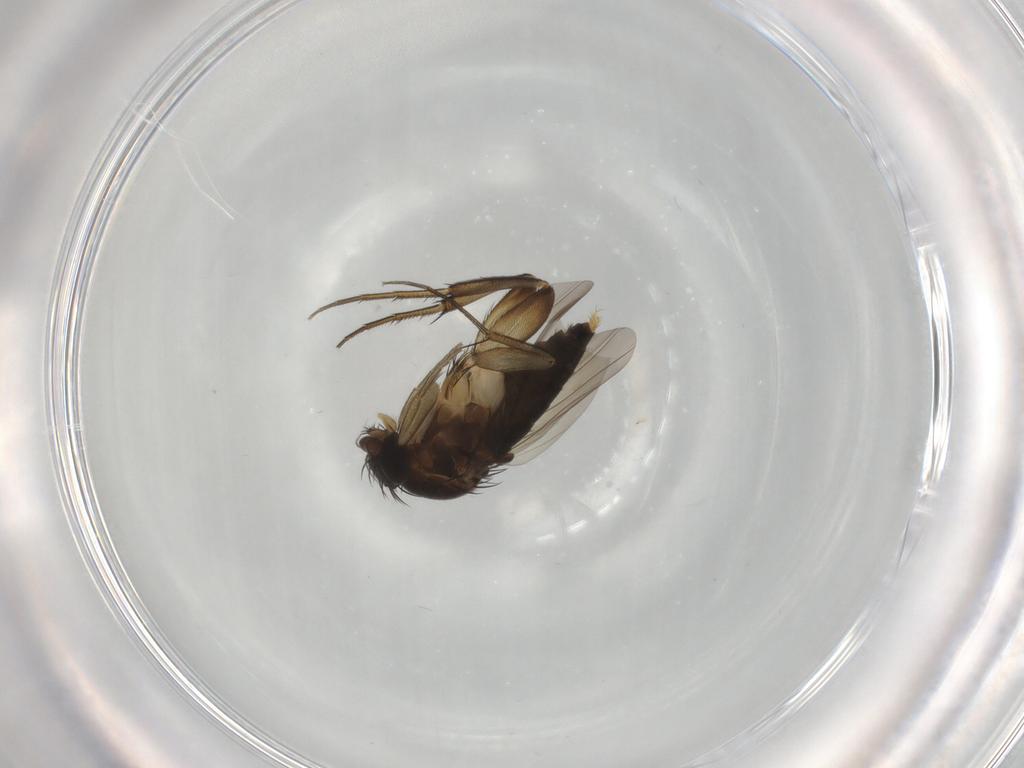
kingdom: Animalia
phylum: Arthropoda
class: Insecta
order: Diptera
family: Phoridae
